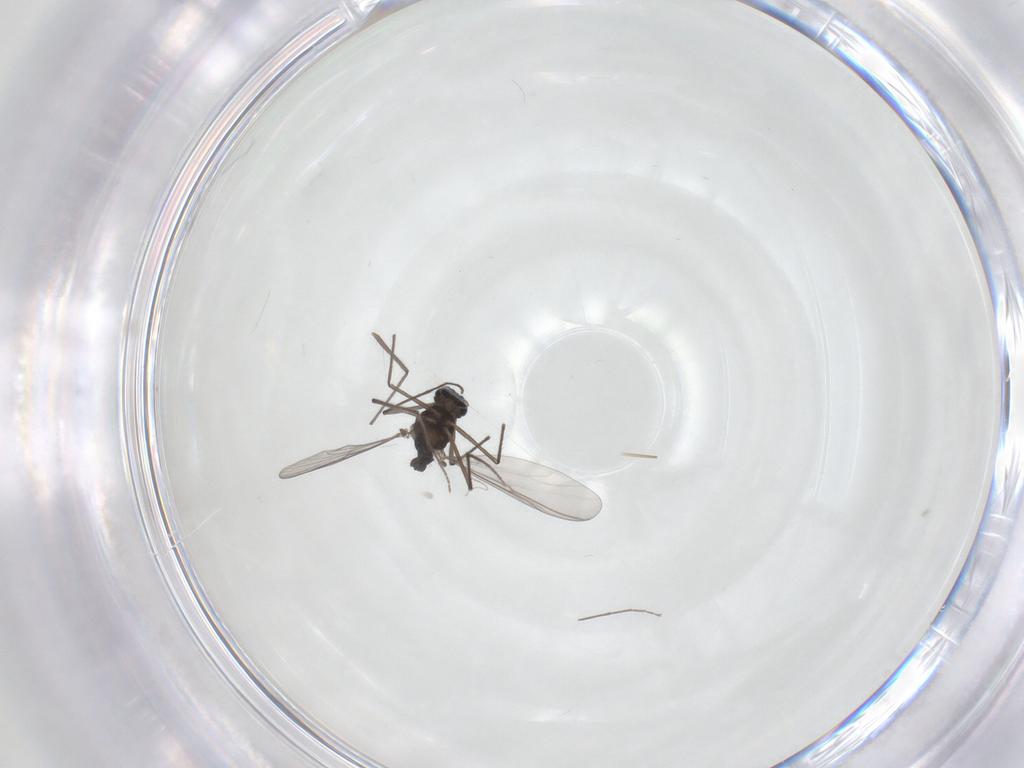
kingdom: Animalia
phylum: Arthropoda
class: Insecta
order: Diptera
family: Chironomidae
